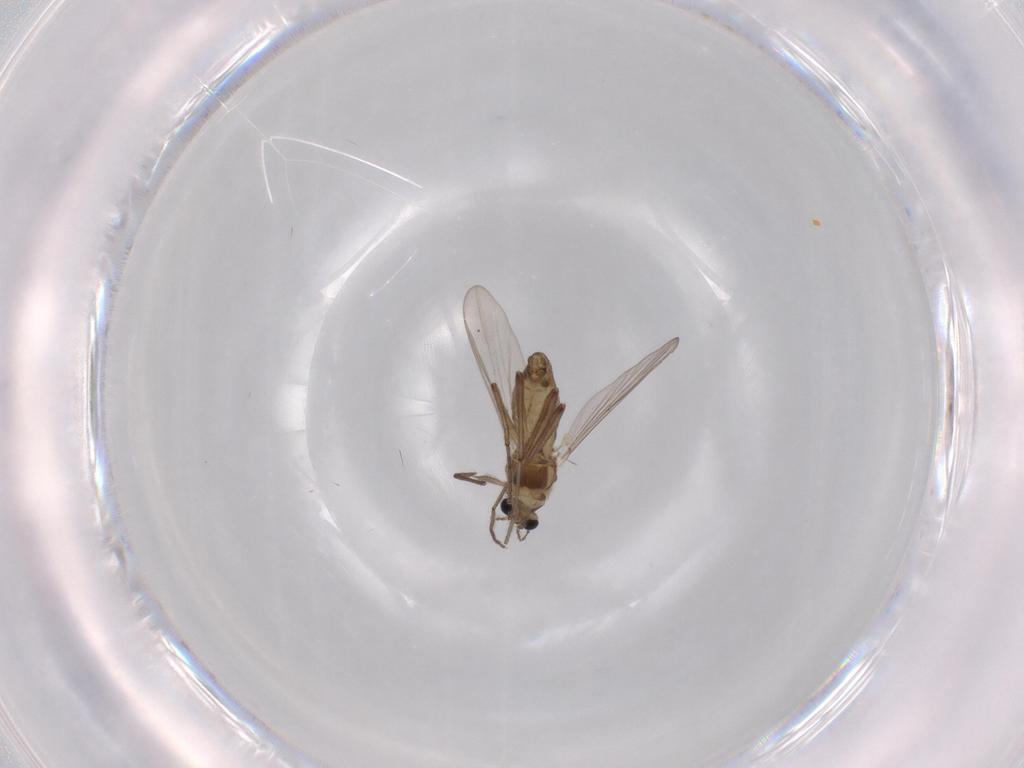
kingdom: Animalia
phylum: Arthropoda
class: Insecta
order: Diptera
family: Chironomidae
